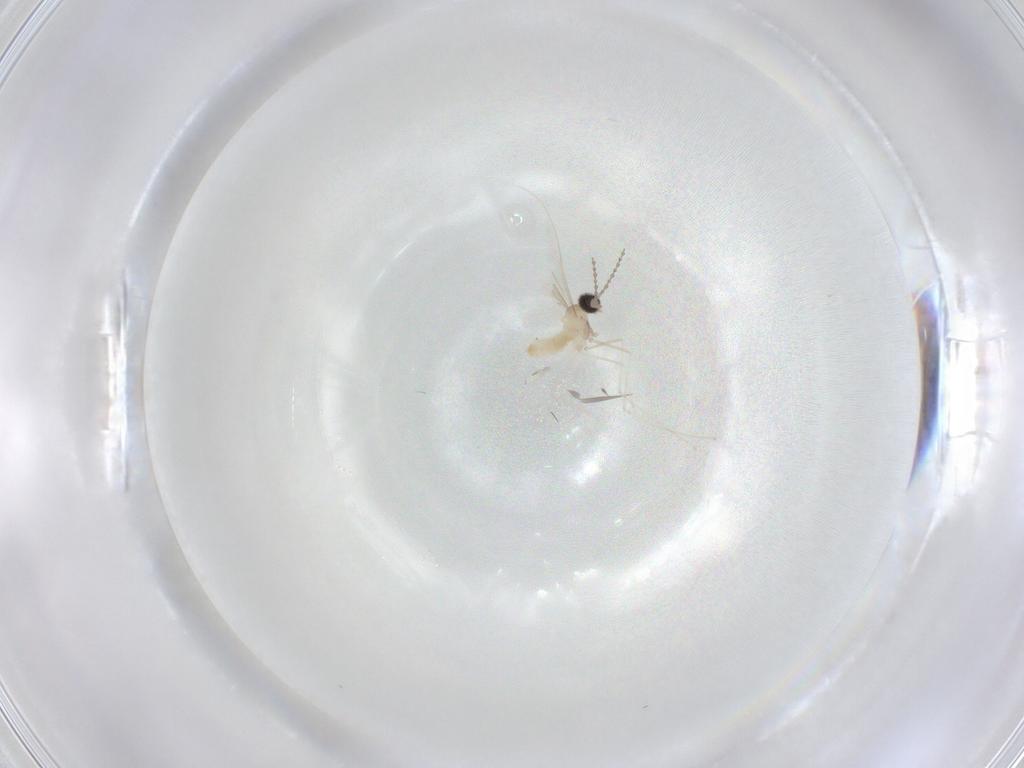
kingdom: Animalia
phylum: Arthropoda
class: Insecta
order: Diptera
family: Cecidomyiidae
